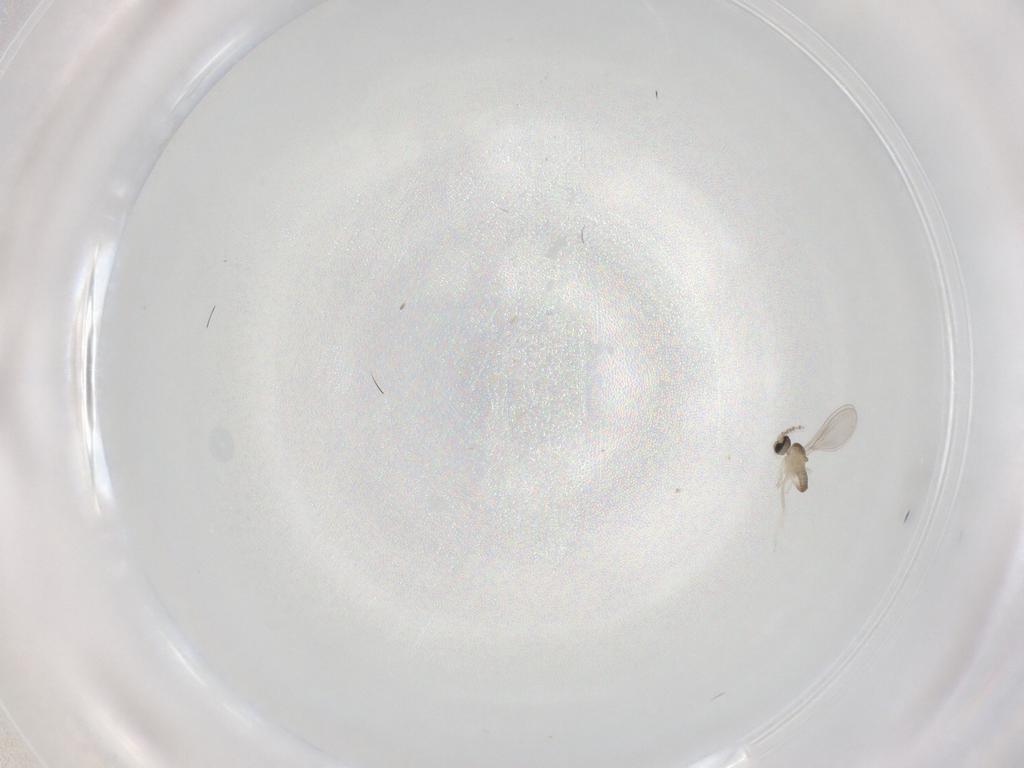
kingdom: Animalia
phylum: Arthropoda
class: Insecta
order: Diptera
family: Cecidomyiidae
